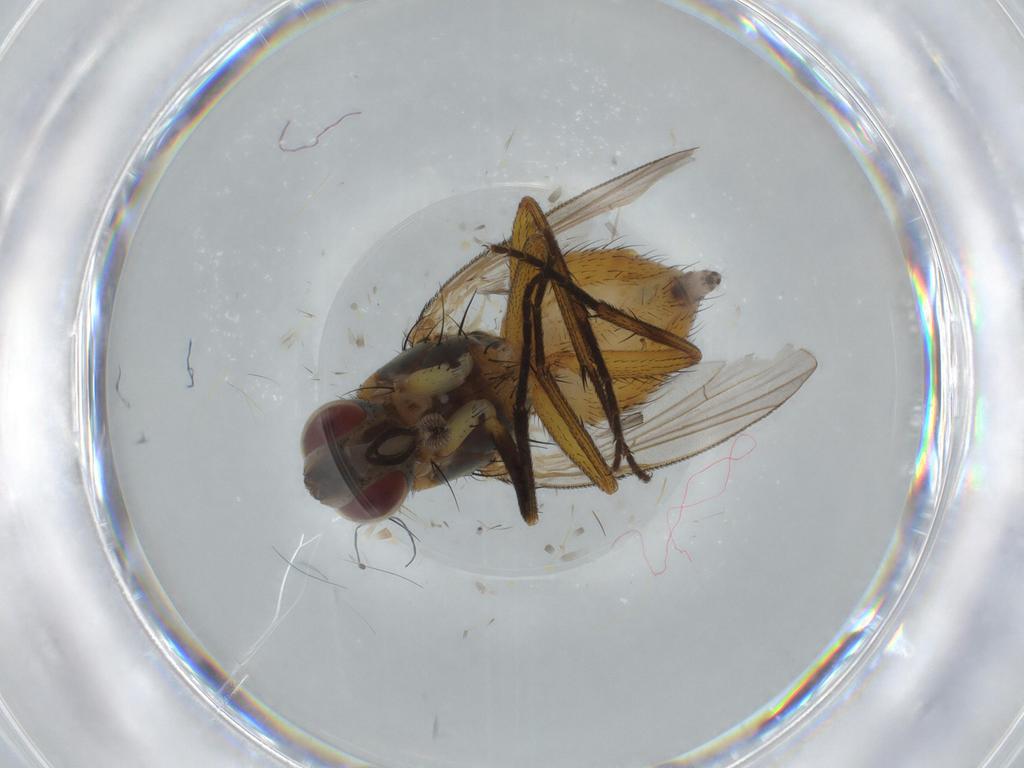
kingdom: Animalia
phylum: Arthropoda
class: Insecta
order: Diptera
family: Muscidae
